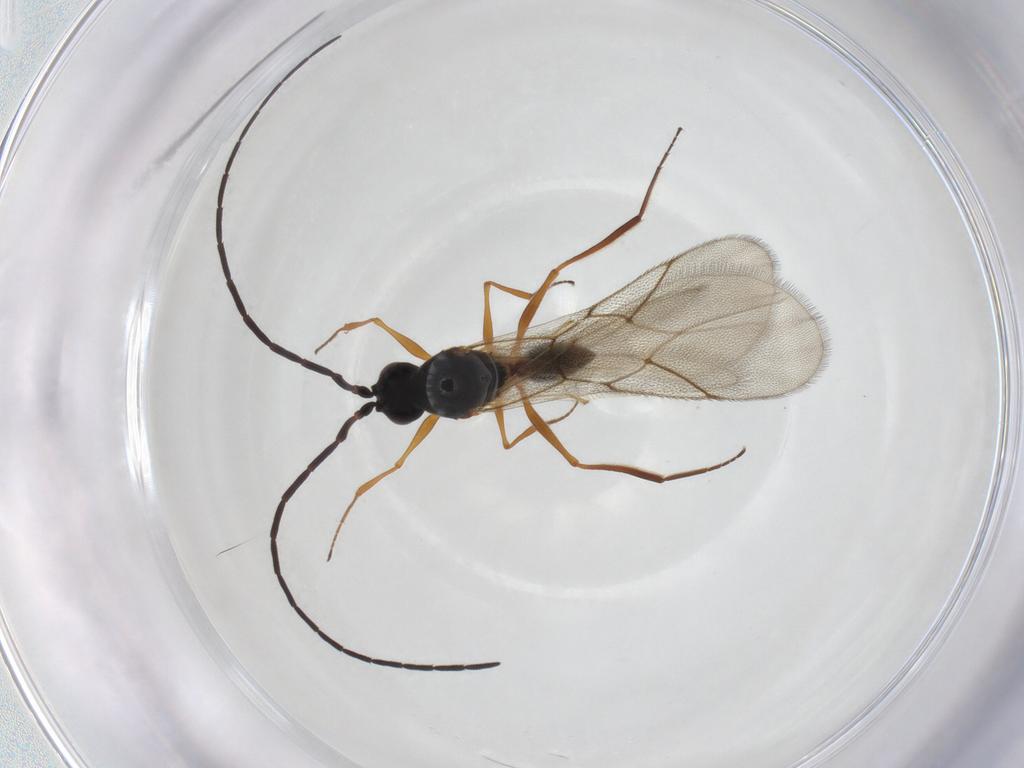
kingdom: Animalia
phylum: Arthropoda
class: Insecta
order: Hymenoptera
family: Figitidae
